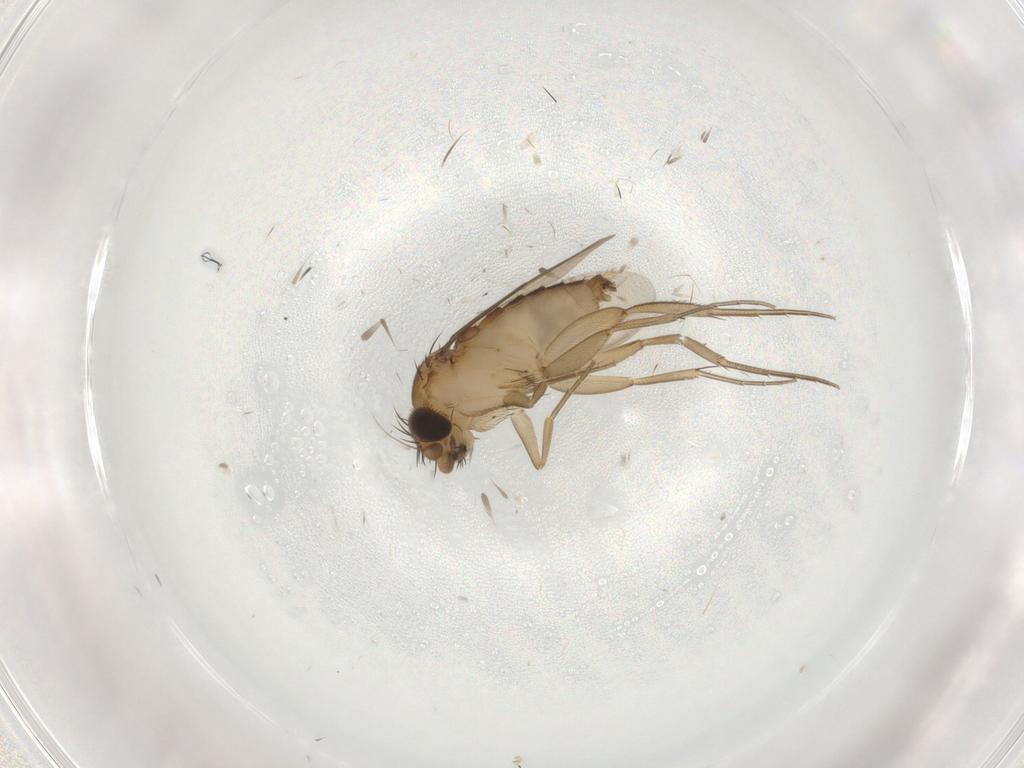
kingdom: Animalia
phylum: Arthropoda
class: Insecta
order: Diptera
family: Phoridae
